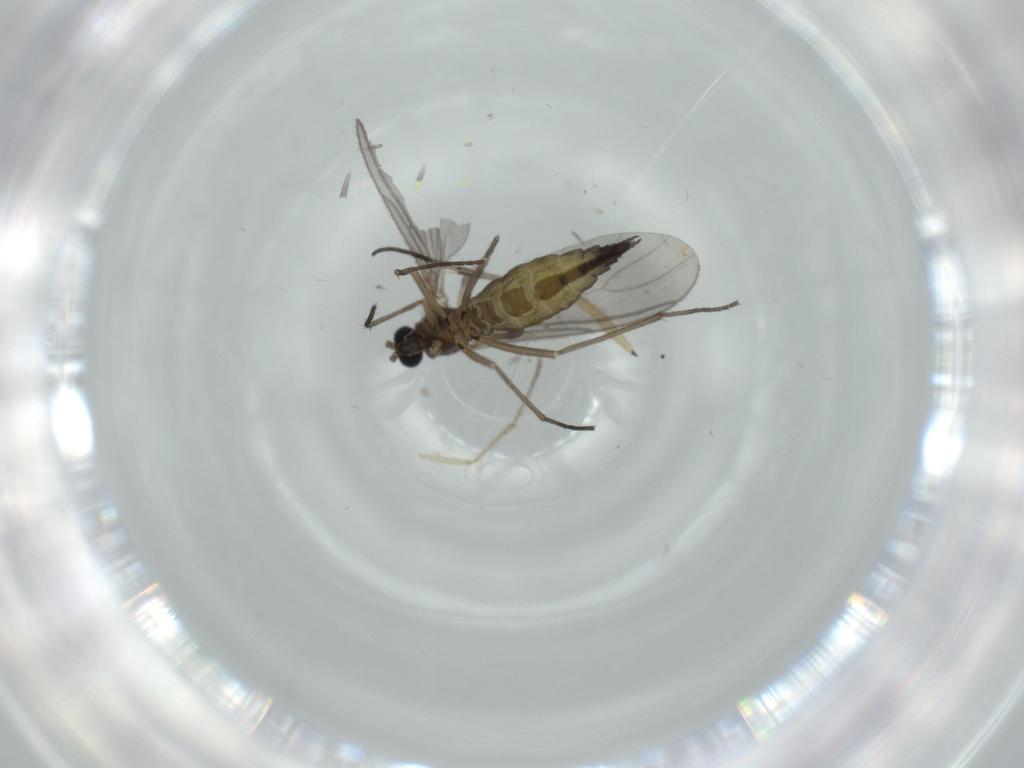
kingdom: Animalia
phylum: Arthropoda
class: Insecta
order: Diptera
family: Sciaridae
